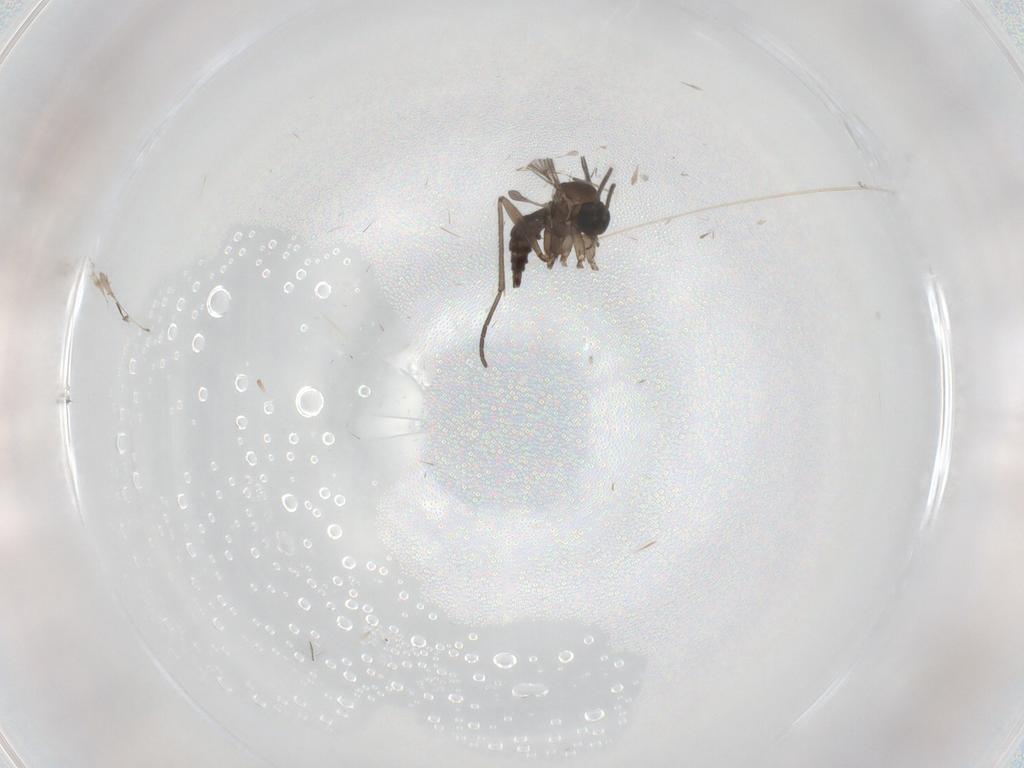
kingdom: Animalia
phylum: Arthropoda
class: Insecta
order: Diptera
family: Sciaridae
